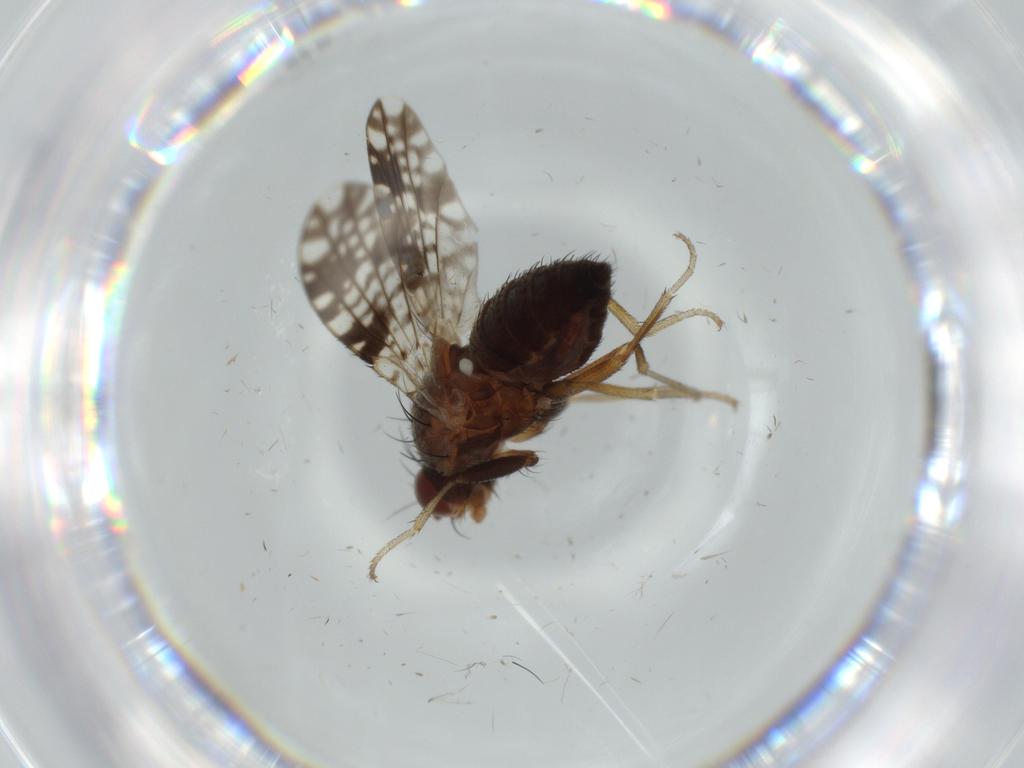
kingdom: Animalia
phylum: Arthropoda
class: Insecta
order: Diptera
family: Tephritidae
